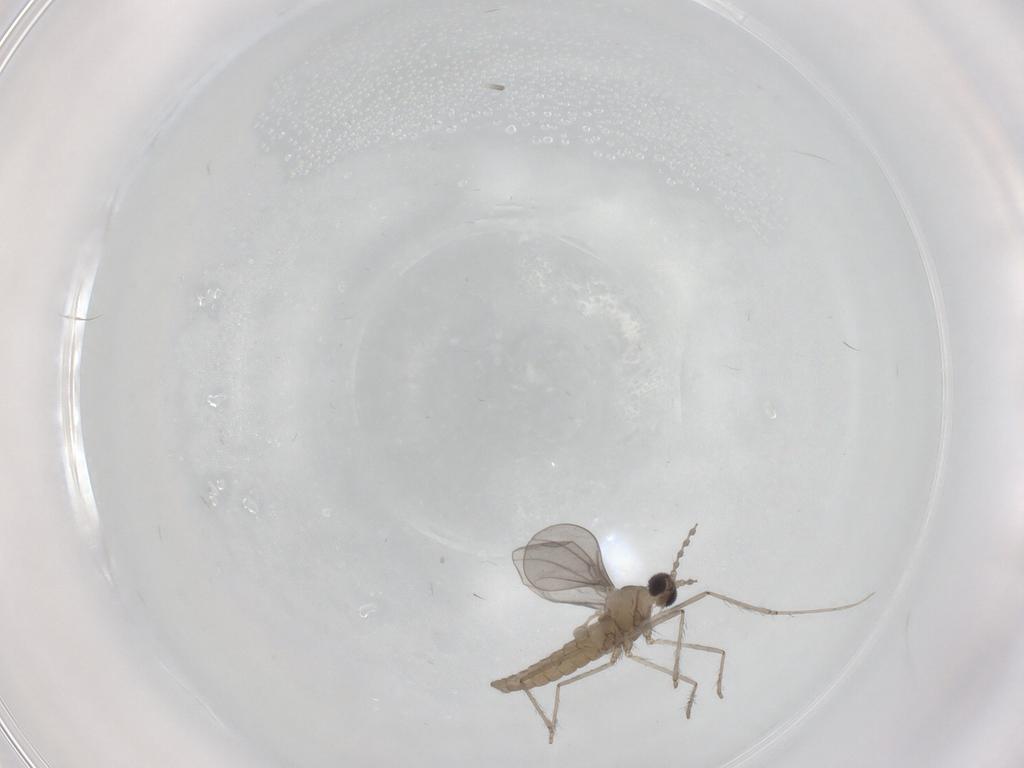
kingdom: Animalia
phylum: Arthropoda
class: Insecta
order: Diptera
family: Cecidomyiidae
